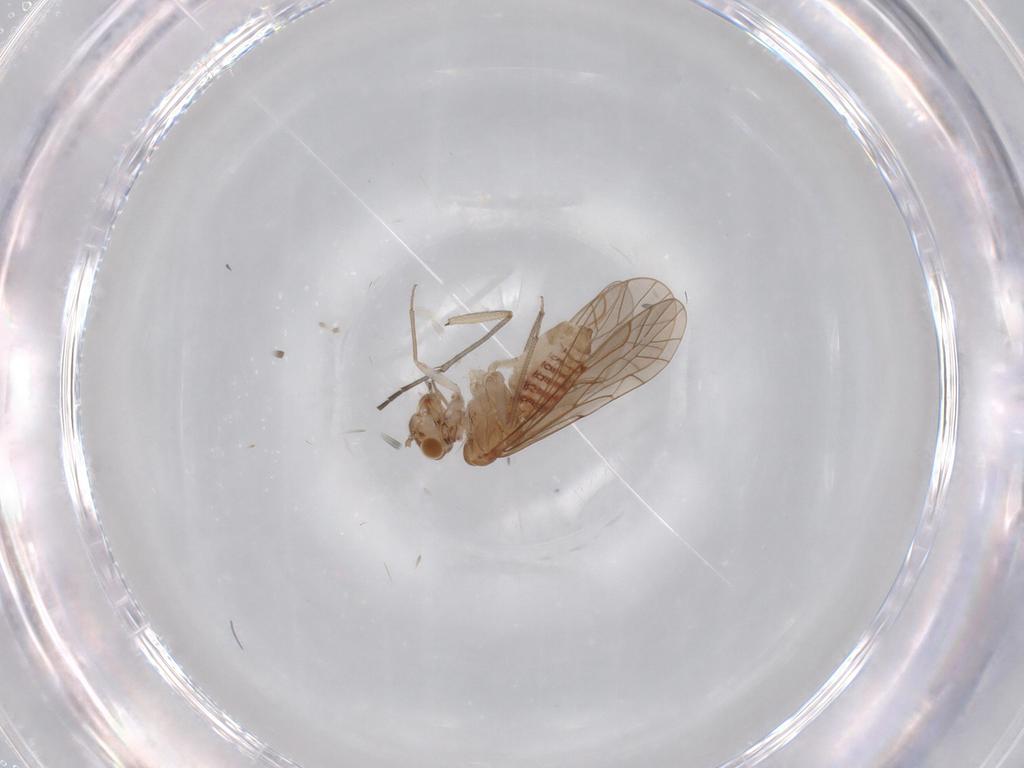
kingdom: Animalia
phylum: Arthropoda
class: Insecta
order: Psocodea
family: Lachesillidae
